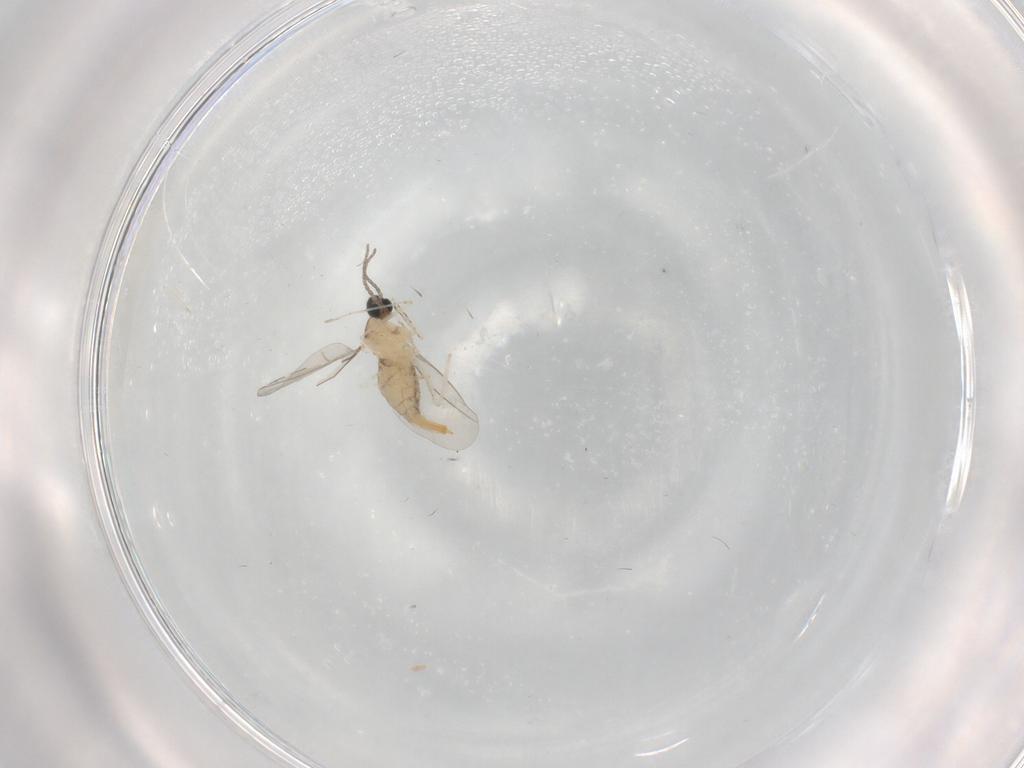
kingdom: Animalia
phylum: Arthropoda
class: Insecta
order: Diptera
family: Cecidomyiidae
